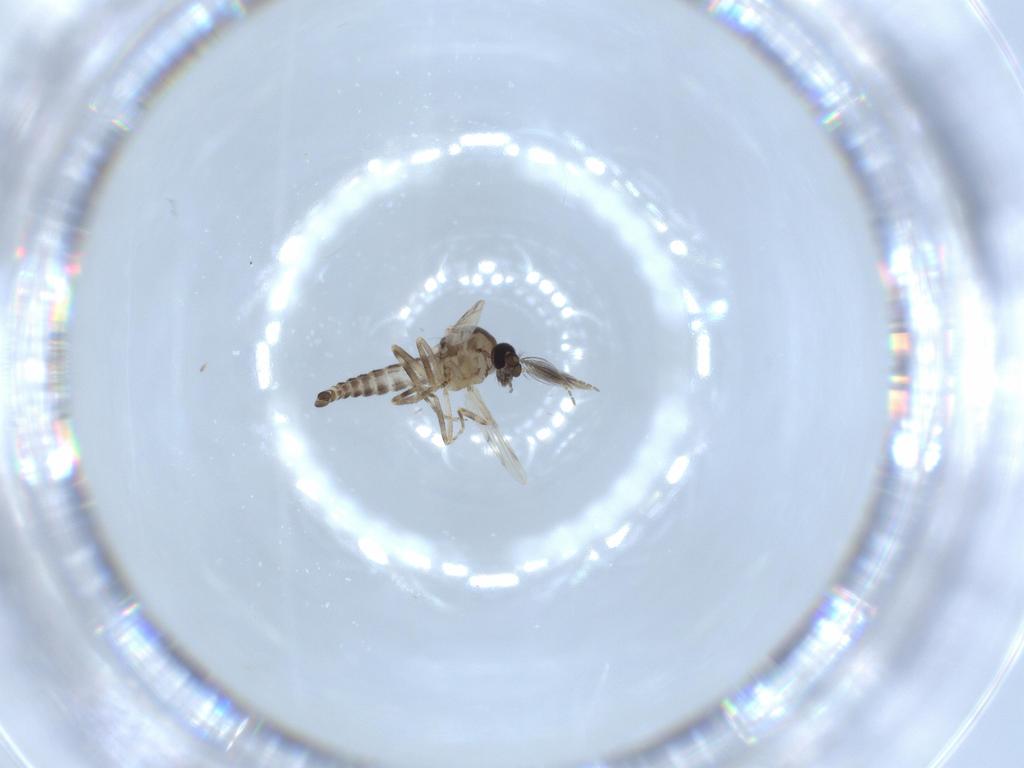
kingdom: Animalia
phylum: Arthropoda
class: Insecta
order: Diptera
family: Ceratopogonidae
